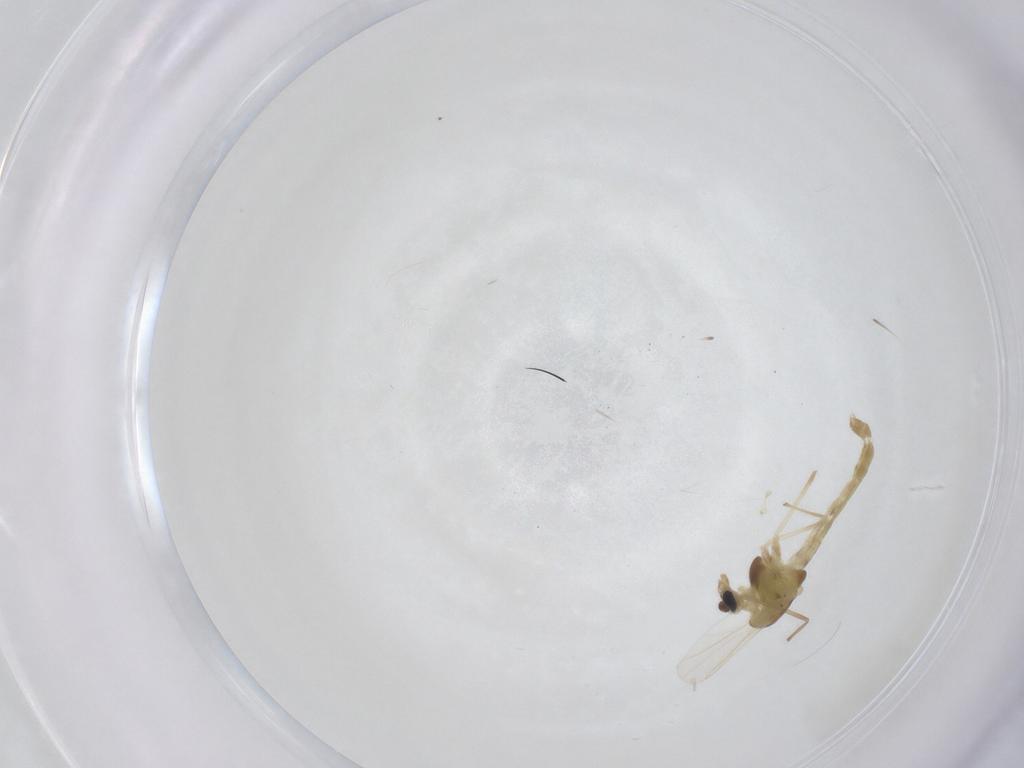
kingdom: Animalia
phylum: Arthropoda
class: Insecta
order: Diptera
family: Chironomidae
